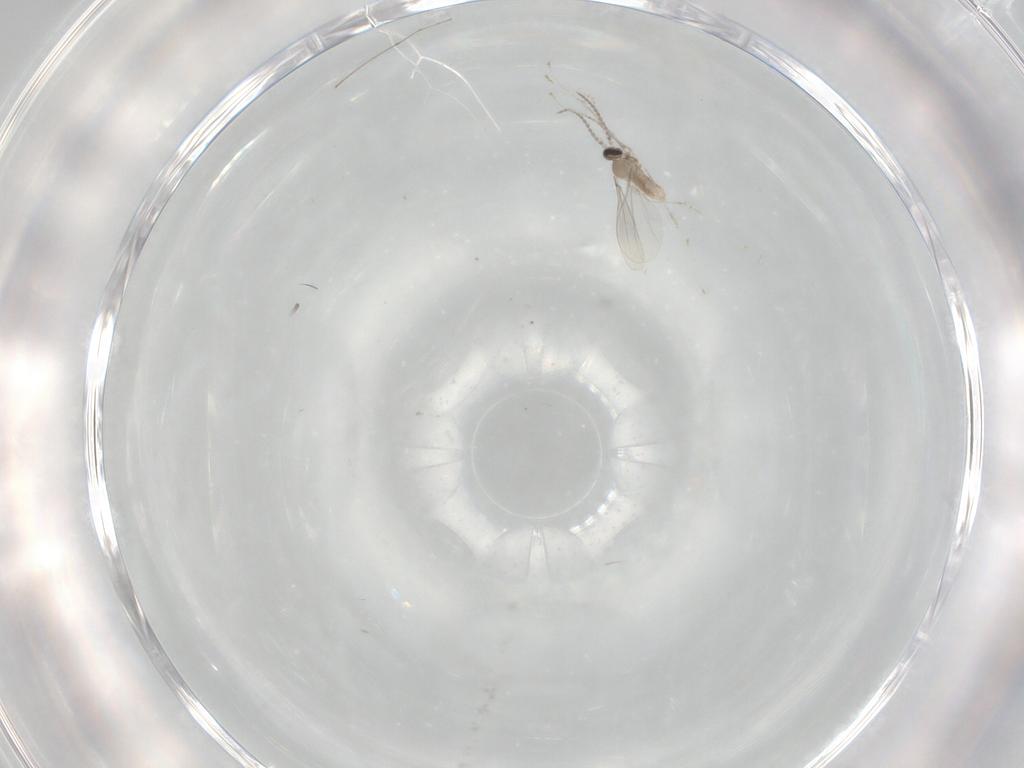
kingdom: Animalia
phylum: Arthropoda
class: Insecta
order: Diptera
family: Cecidomyiidae
